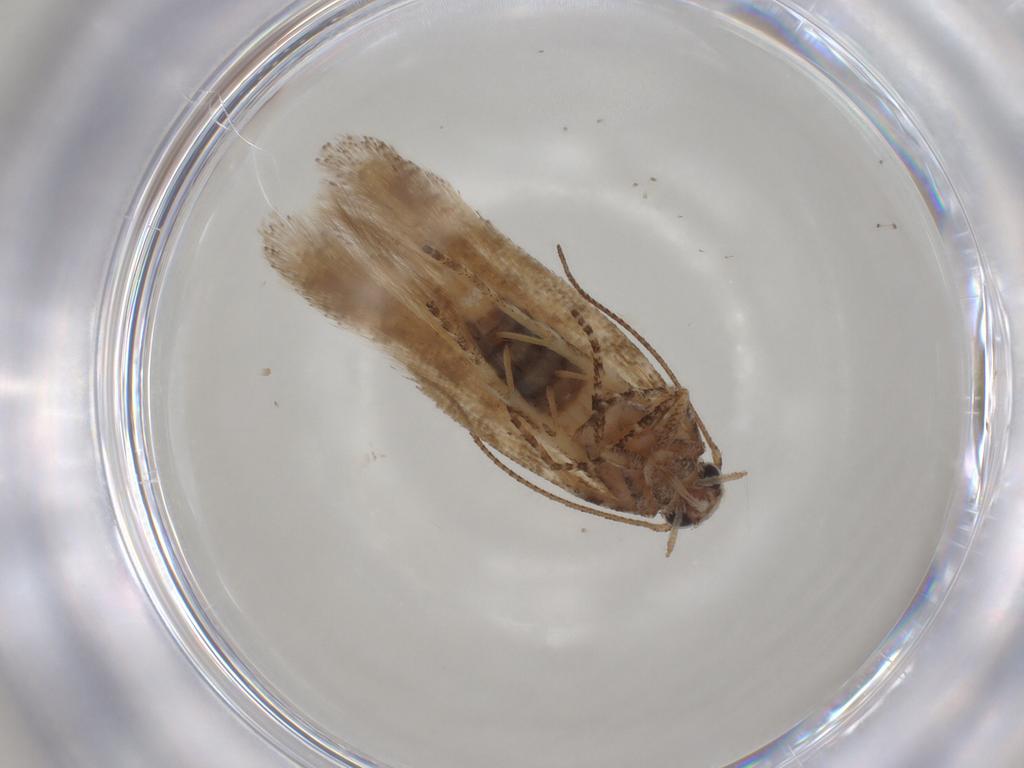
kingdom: Animalia
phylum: Arthropoda
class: Insecta
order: Lepidoptera
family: Gelechiidae
